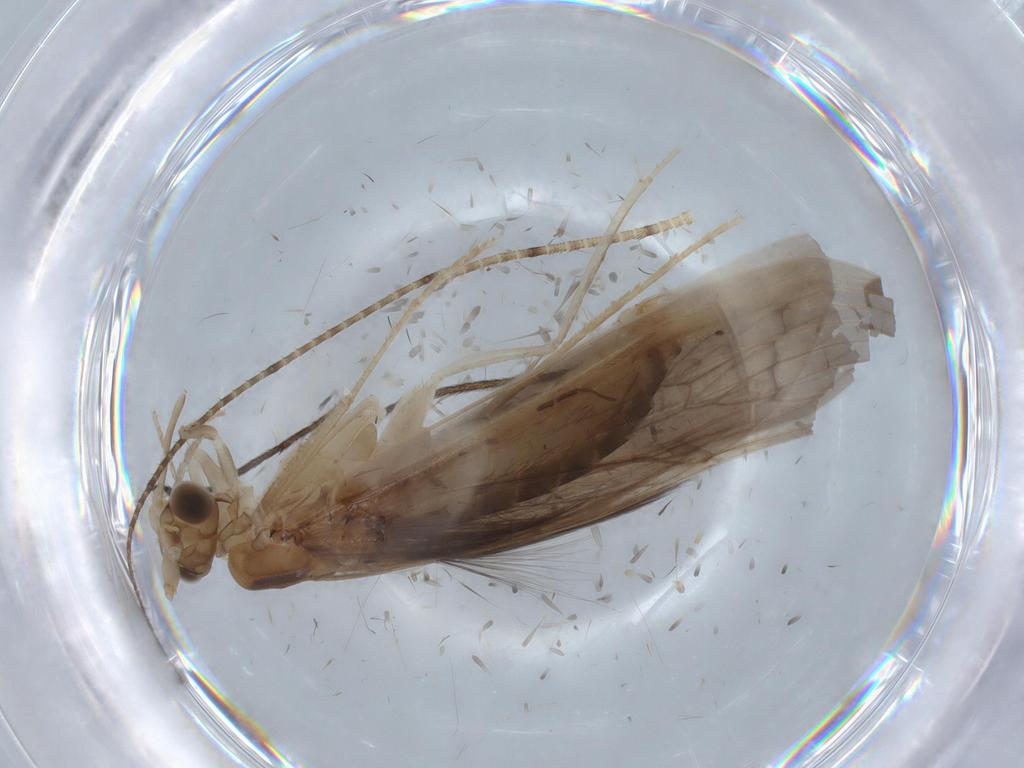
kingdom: Animalia
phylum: Arthropoda
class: Insecta
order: Trichoptera
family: Leptoceridae
